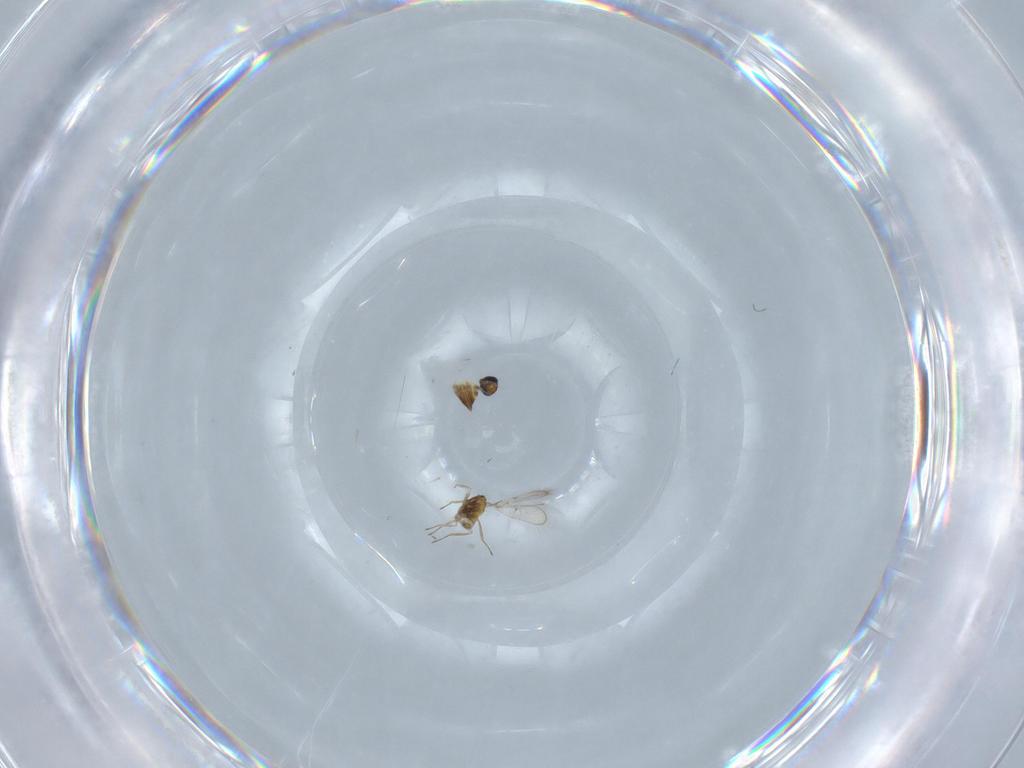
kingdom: Animalia
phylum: Arthropoda
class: Insecta
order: Hymenoptera
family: Trichogrammatidae
